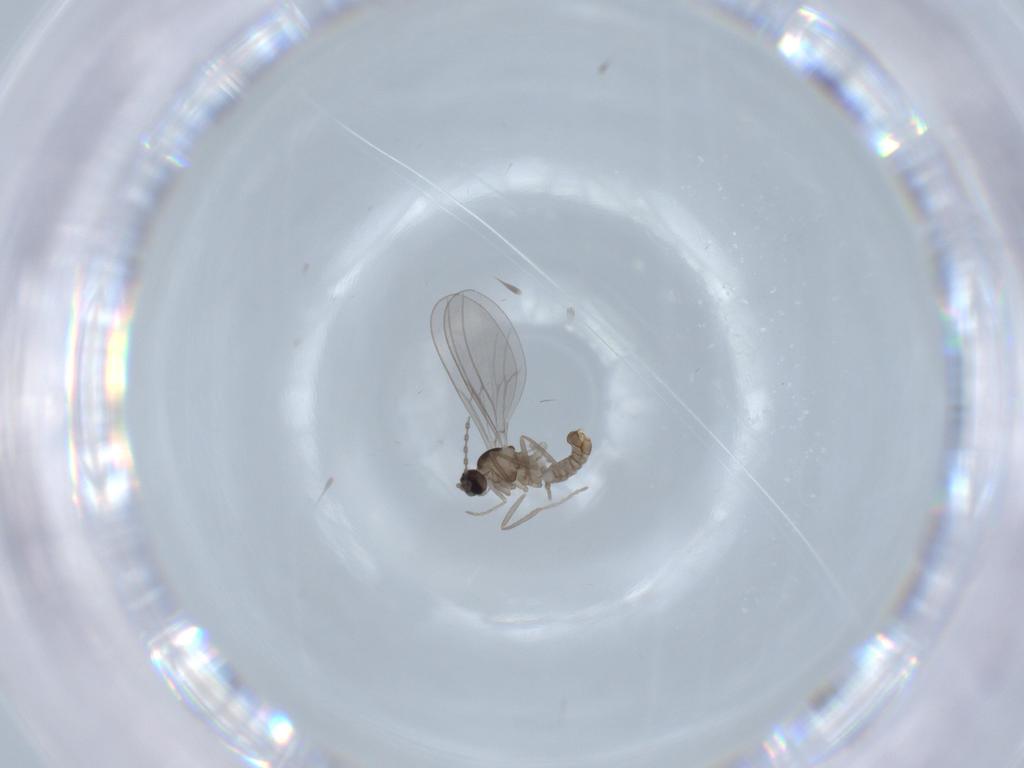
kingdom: Animalia
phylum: Arthropoda
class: Insecta
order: Diptera
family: Cecidomyiidae
